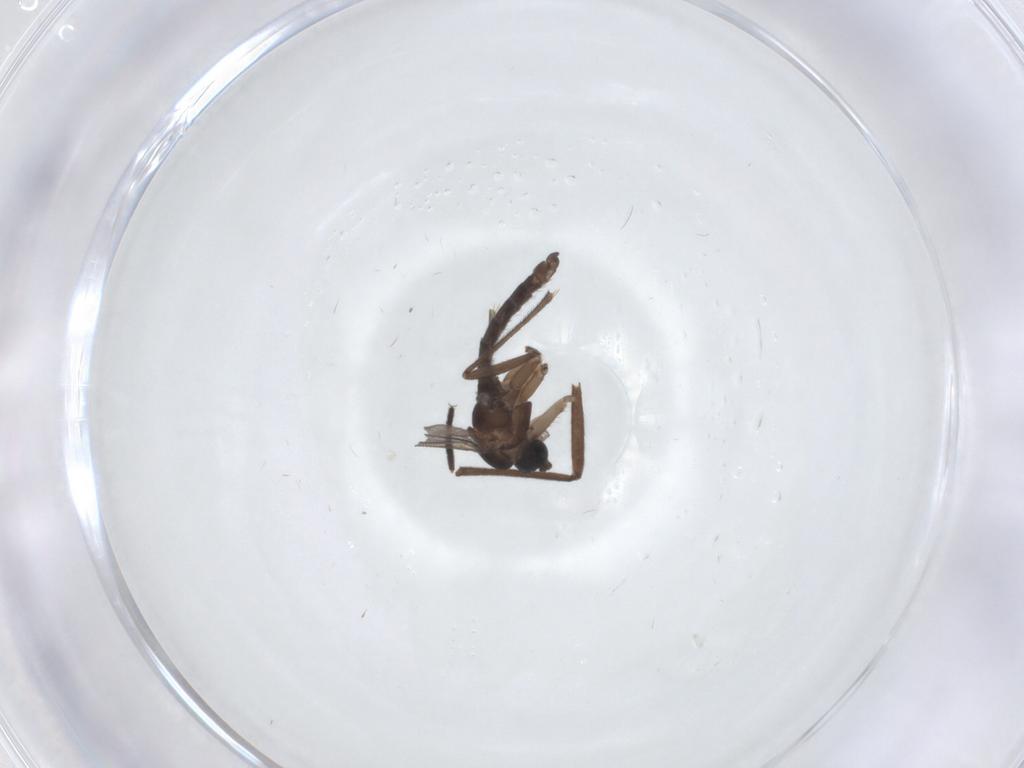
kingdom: Animalia
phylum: Arthropoda
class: Insecta
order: Diptera
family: Sciaridae
